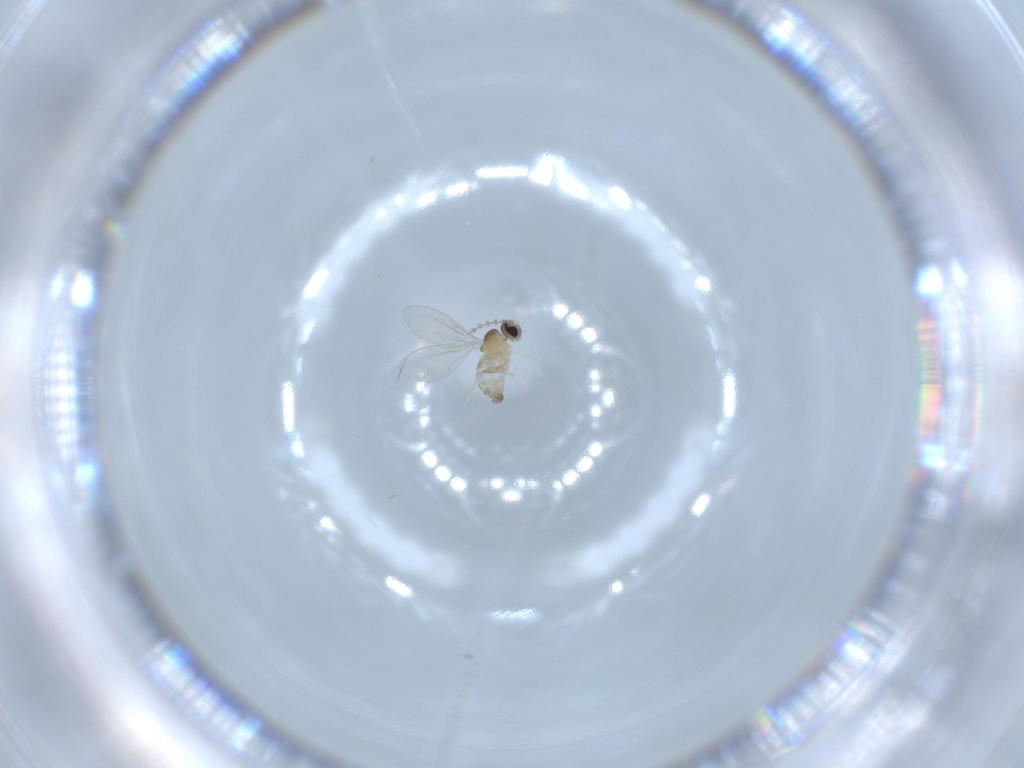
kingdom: Animalia
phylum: Arthropoda
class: Insecta
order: Diptera
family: Cecidomyiidae
